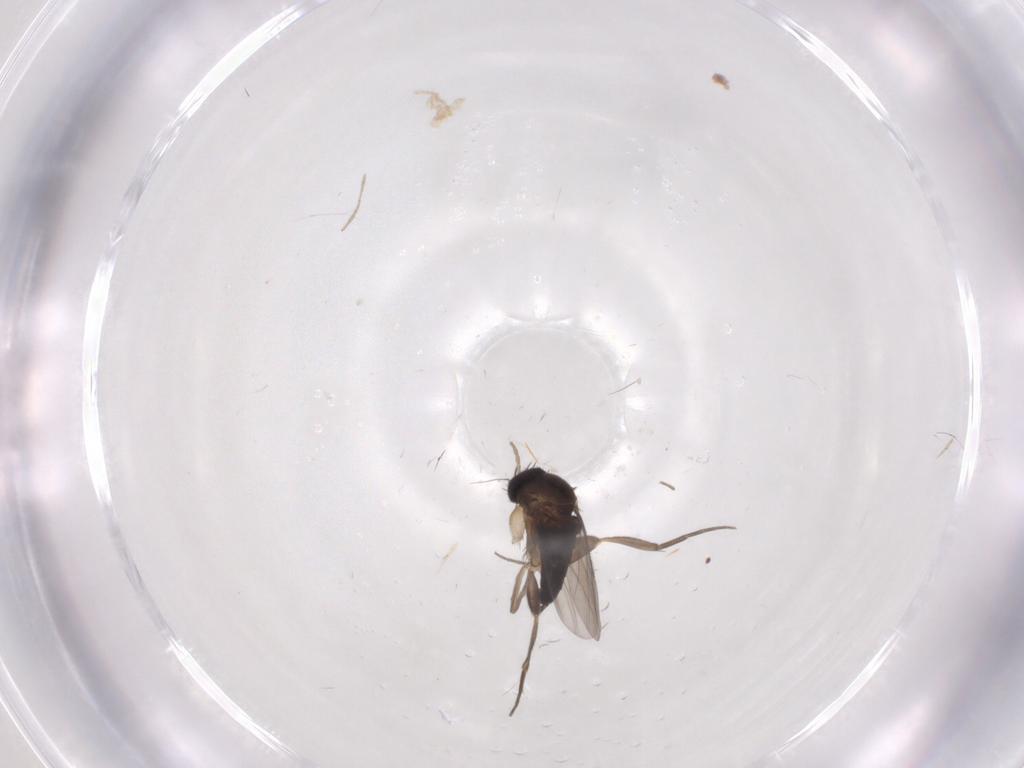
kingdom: Animalia
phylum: Arthropoda
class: Insecta
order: Diptera
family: Phoridae
